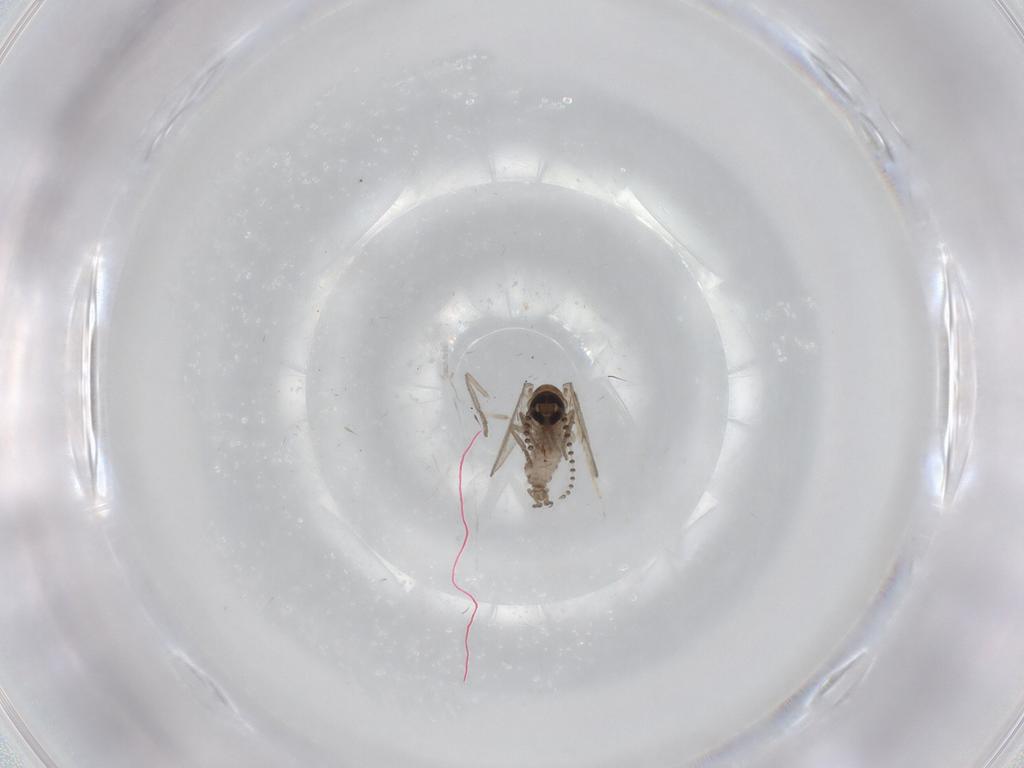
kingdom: Animalia
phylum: Arthropoda
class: Insecta
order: Diptera
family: Psychodidae
